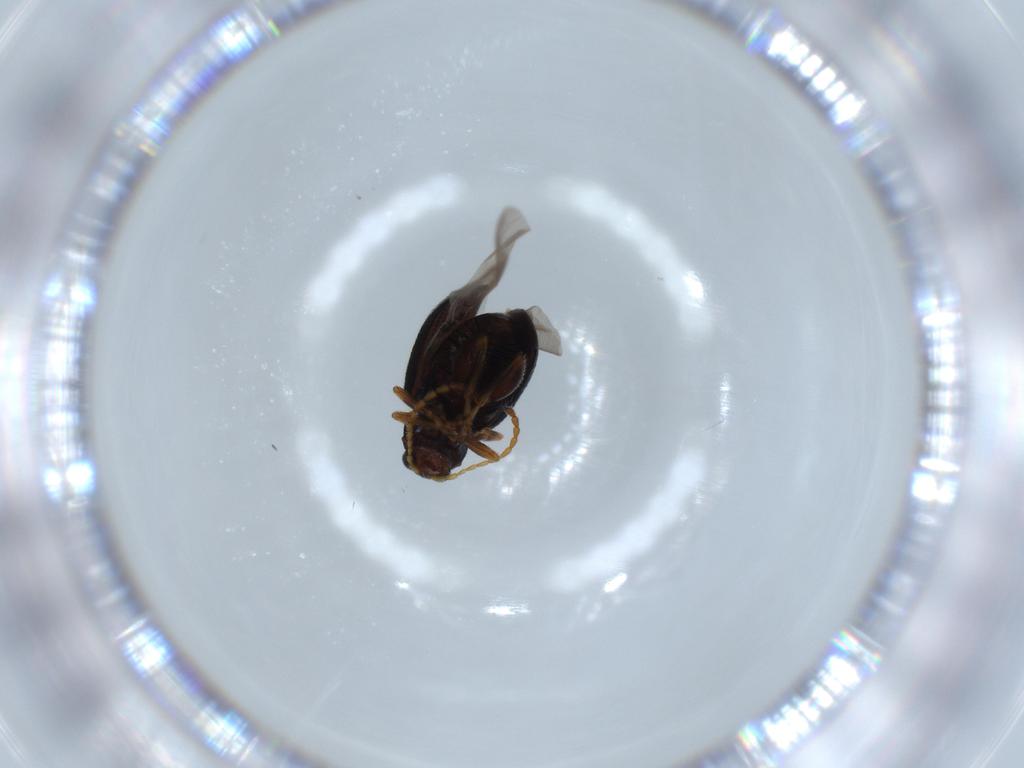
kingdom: Animalia
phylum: Arthropoda
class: Insecta
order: Coleoptera
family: Chrysomelidae
